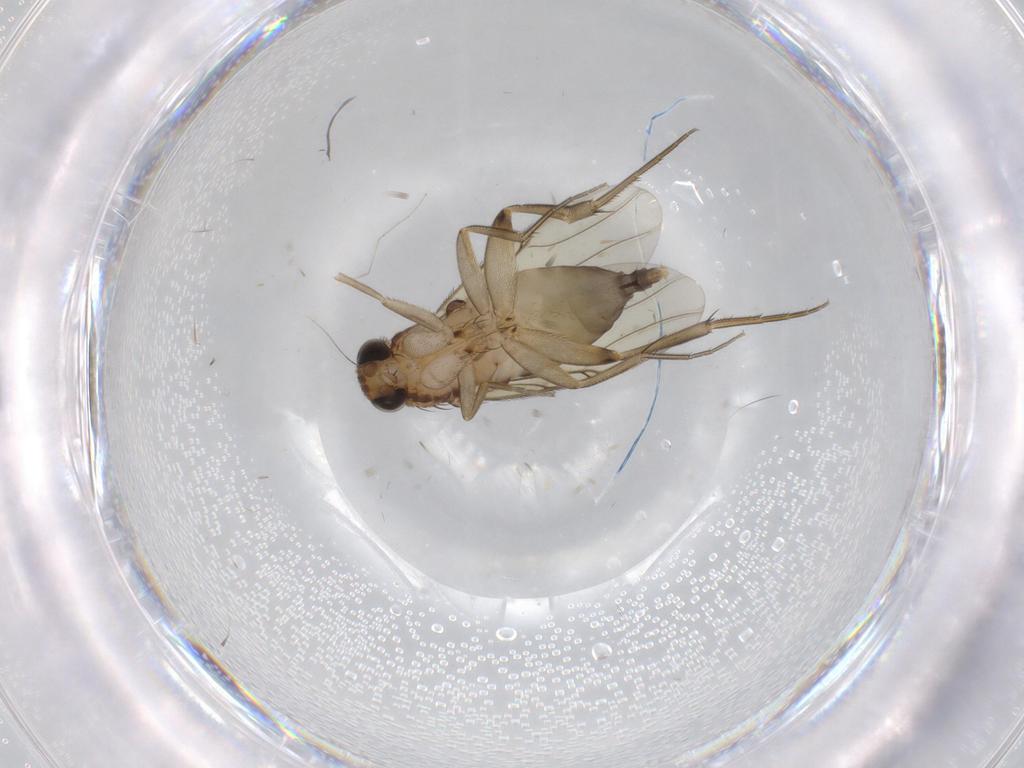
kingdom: Animalia
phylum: Arthropoda
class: Insecta
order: Diptera
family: Phoridae
